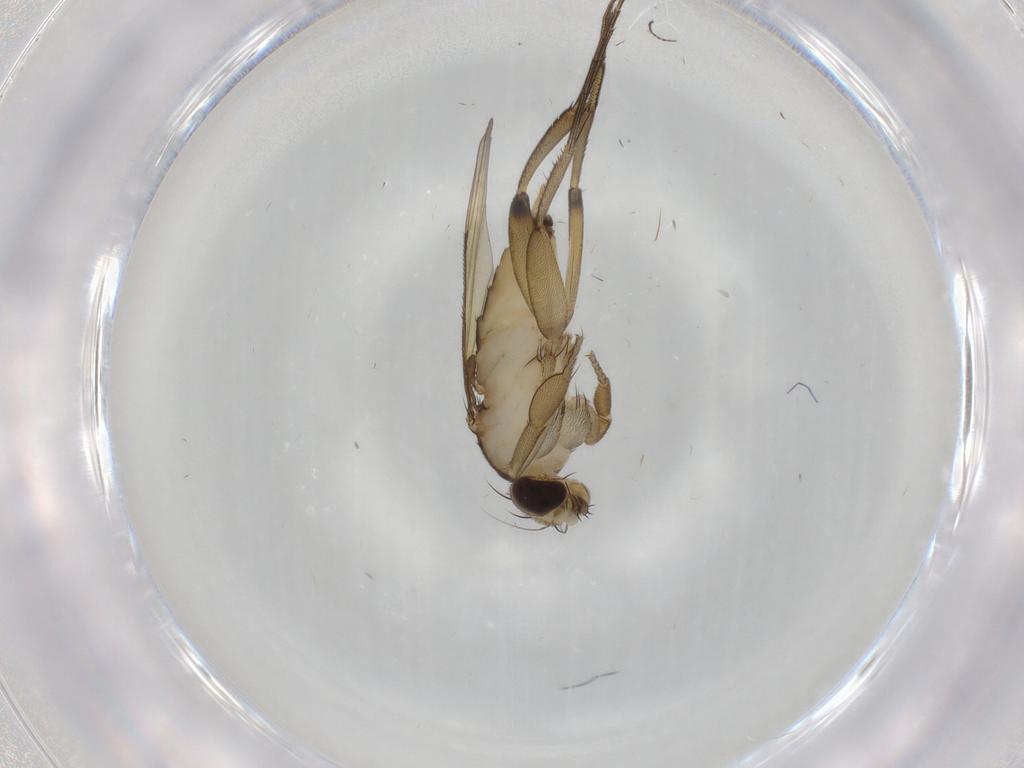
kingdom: Animalia
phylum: Arthropoda
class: Insecta
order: Diptera
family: Phoridae
